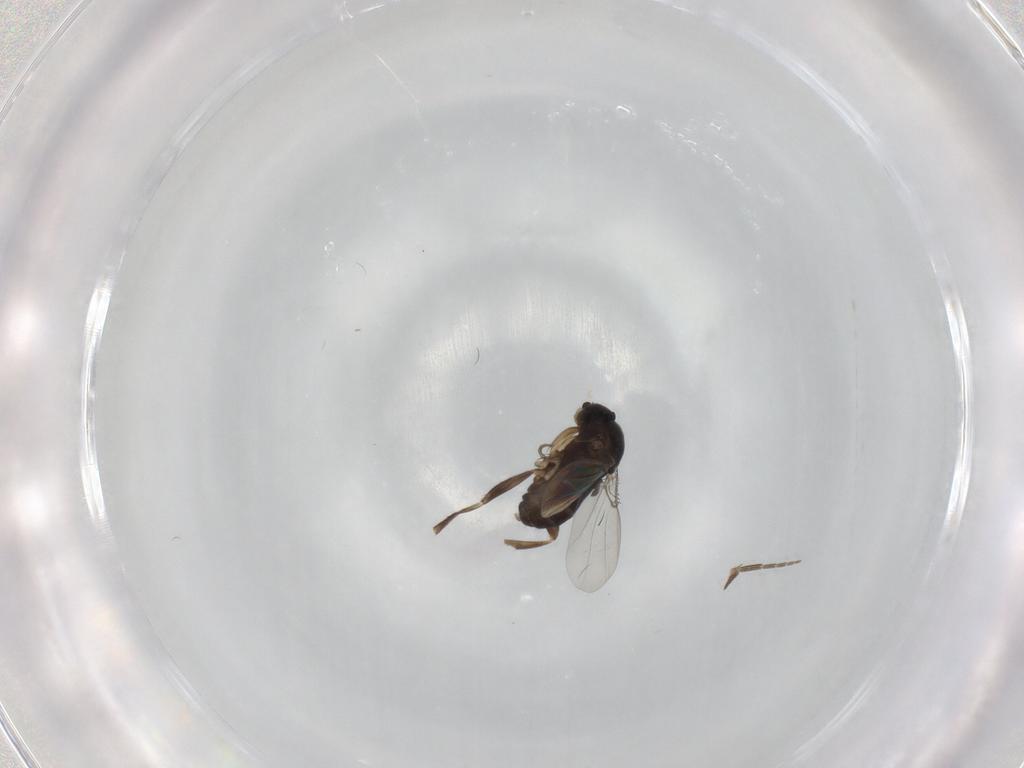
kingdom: Animalia
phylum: Arthropoda
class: Insecta
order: Diptera
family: Phoridae
